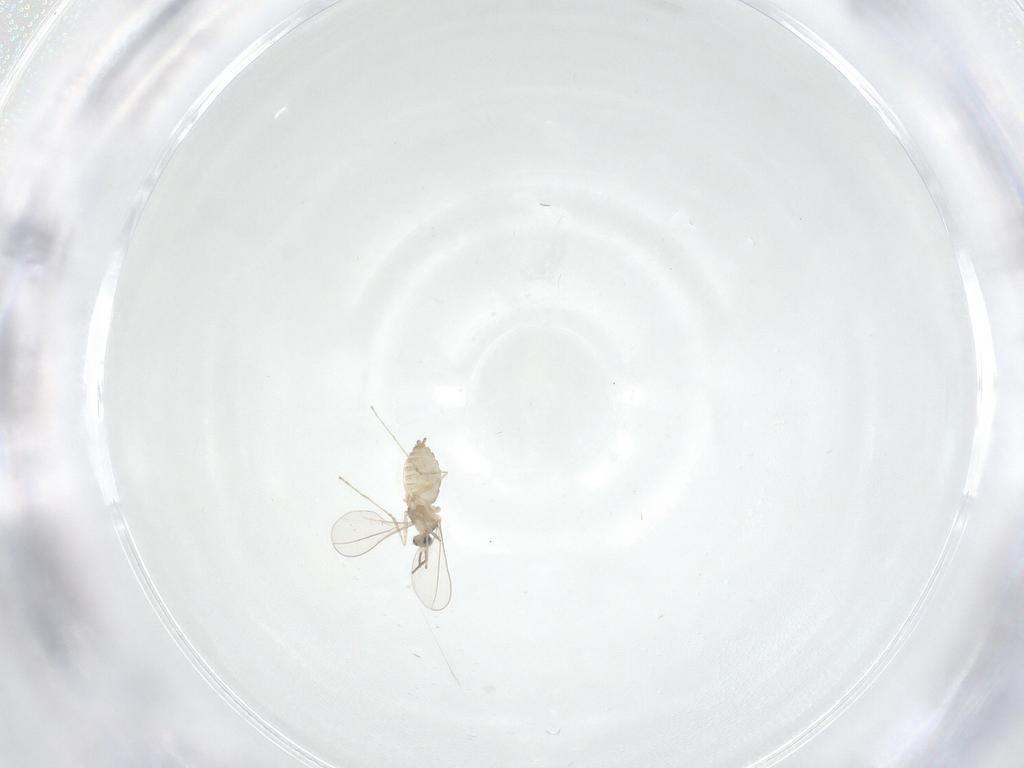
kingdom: Animalia
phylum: Arthropoda
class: Insecta
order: Diptera
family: Cecidomyiidae
